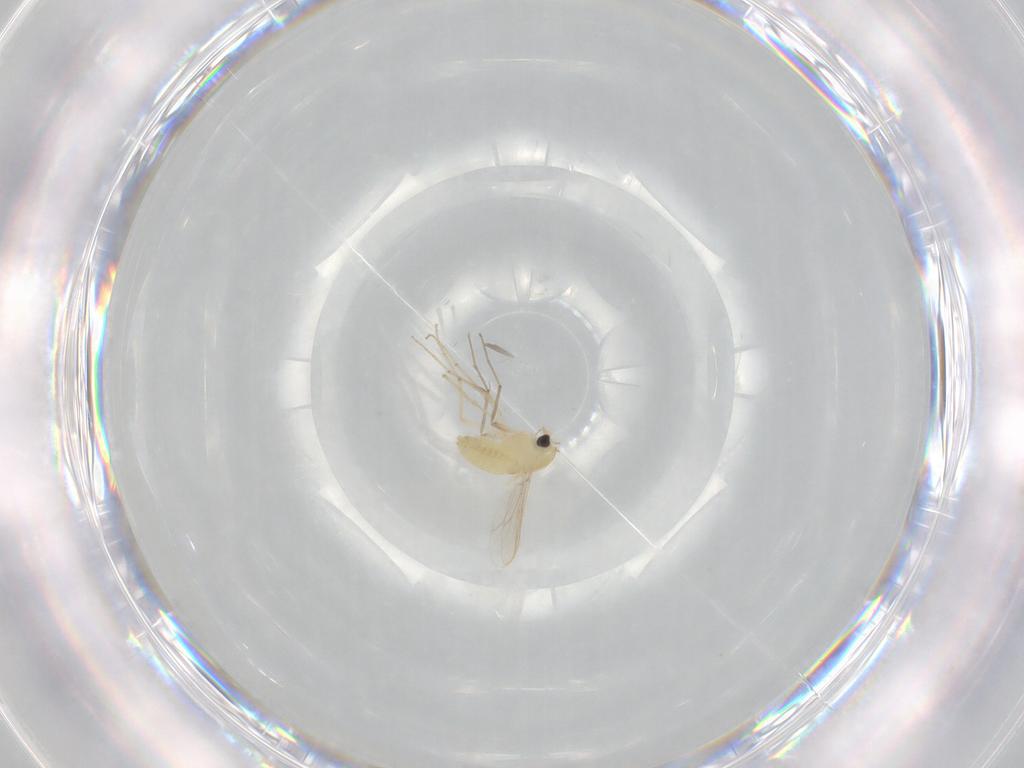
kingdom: Animalia
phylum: Arthropoda
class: Insecta
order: Diptera
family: Chironomidae
